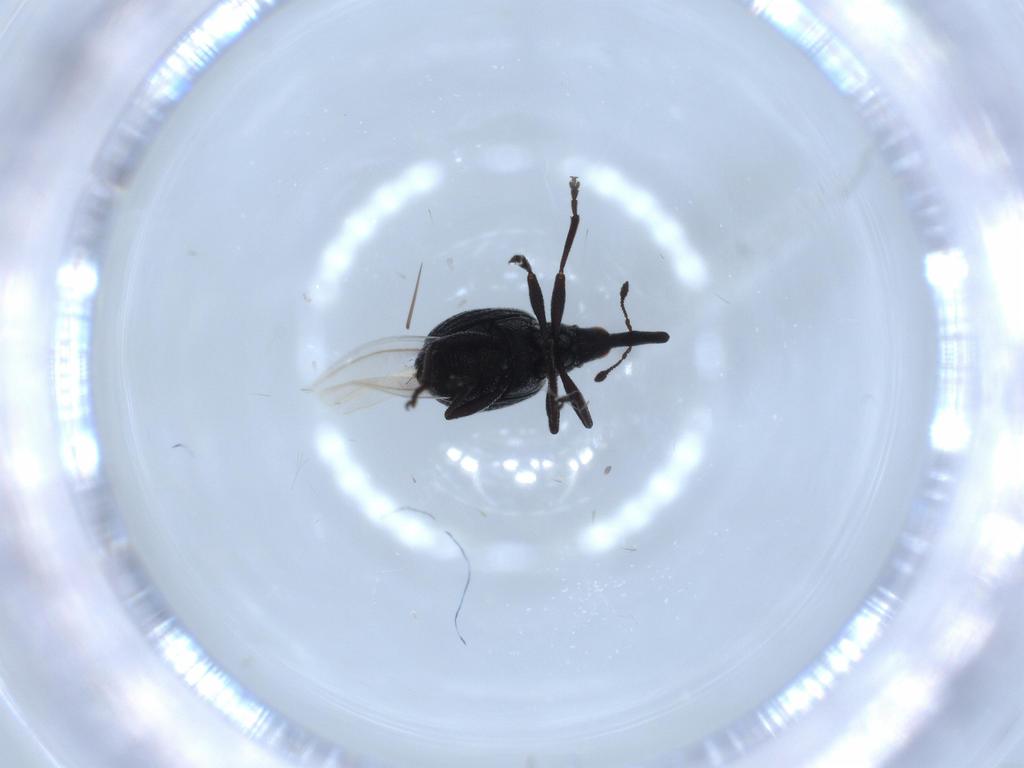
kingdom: Animalia
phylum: Arthropoda
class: Insecta
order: Coleoptera
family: Brentidae
